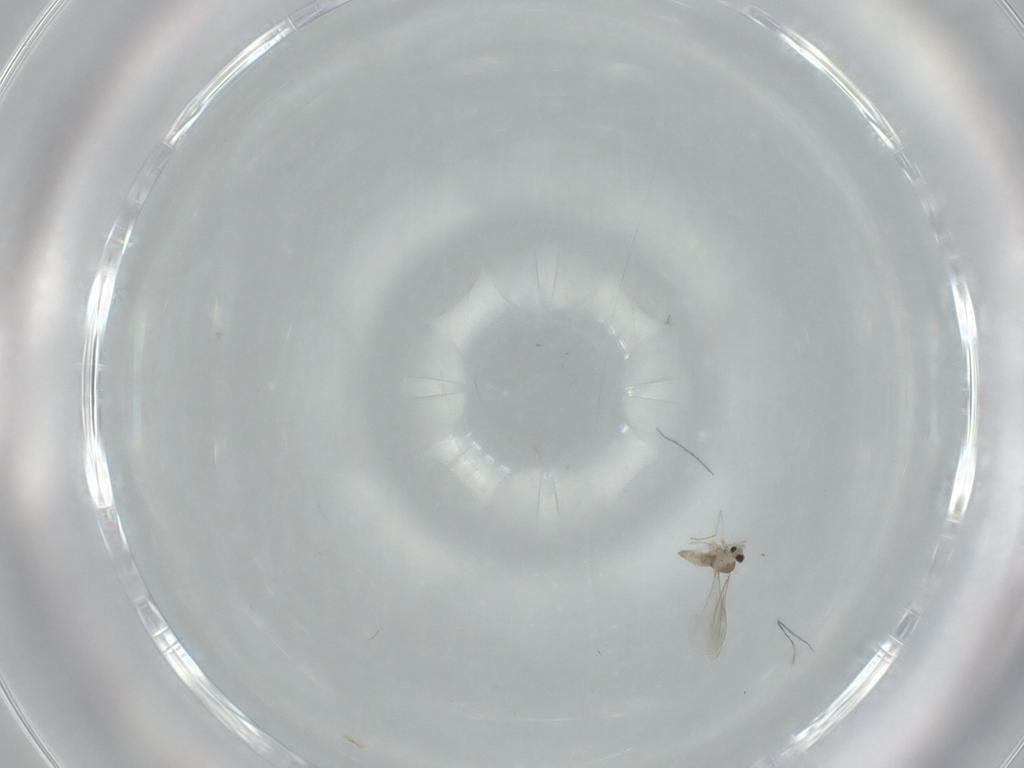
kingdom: Animalia
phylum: Arthropoda
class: Insecta
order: Diptera
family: Cecidomyiidae
